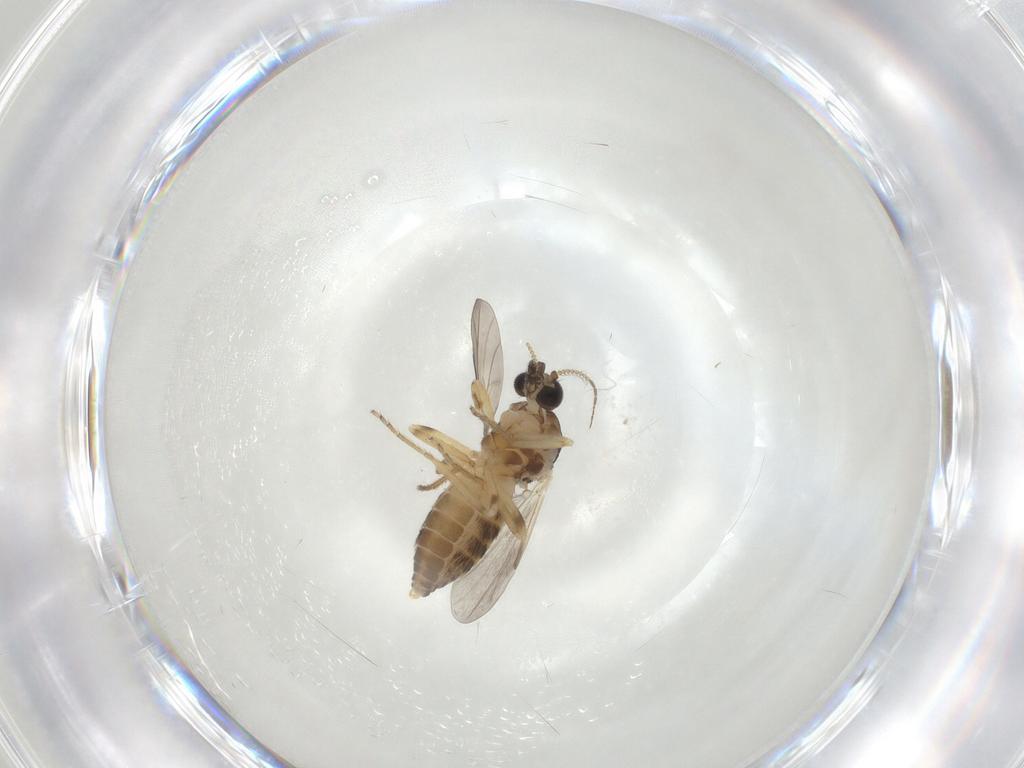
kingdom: Animalia
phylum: Arthropoda
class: Insecta
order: Diptera
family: Ceratopogonidae
